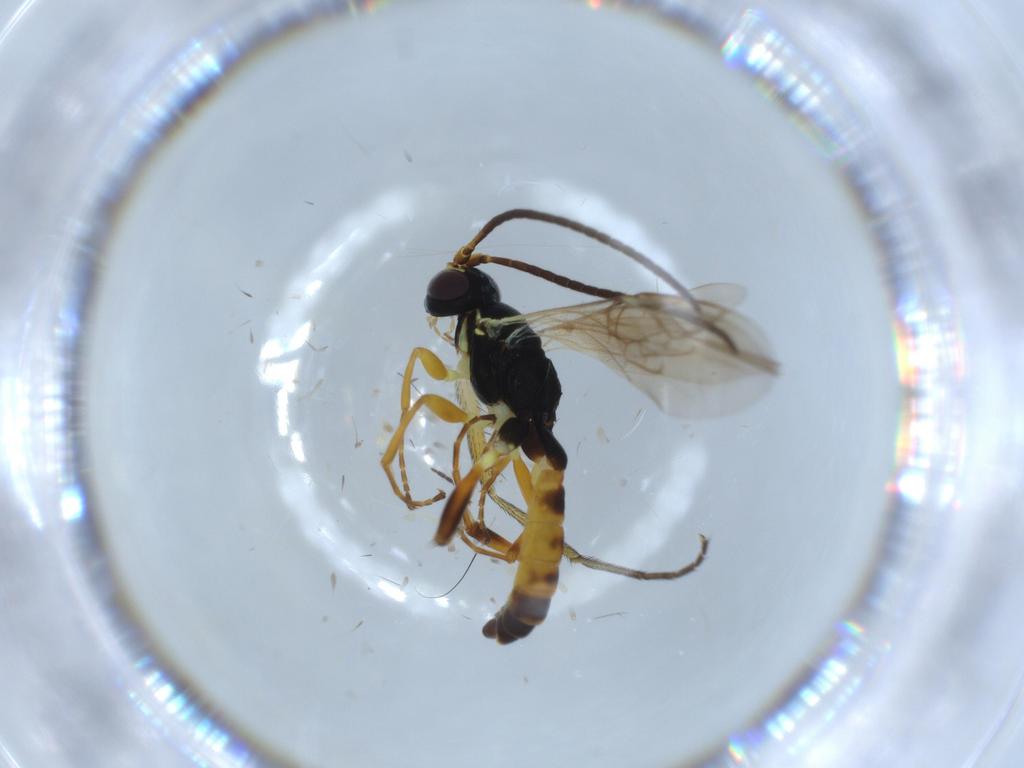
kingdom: Animalia
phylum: Arthropoda
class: Insecta
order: Hymenoptera
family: Ichneumonidae
